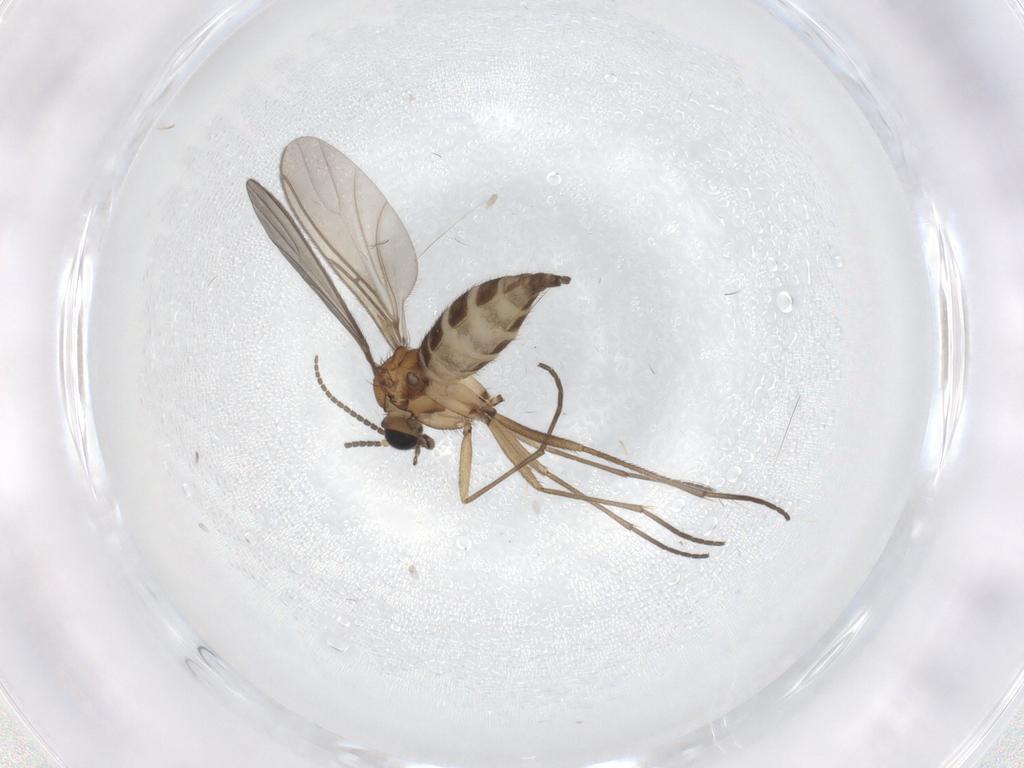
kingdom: Animalia
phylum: Arthropoda
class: Insecta
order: Diptera
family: Sciaridae
